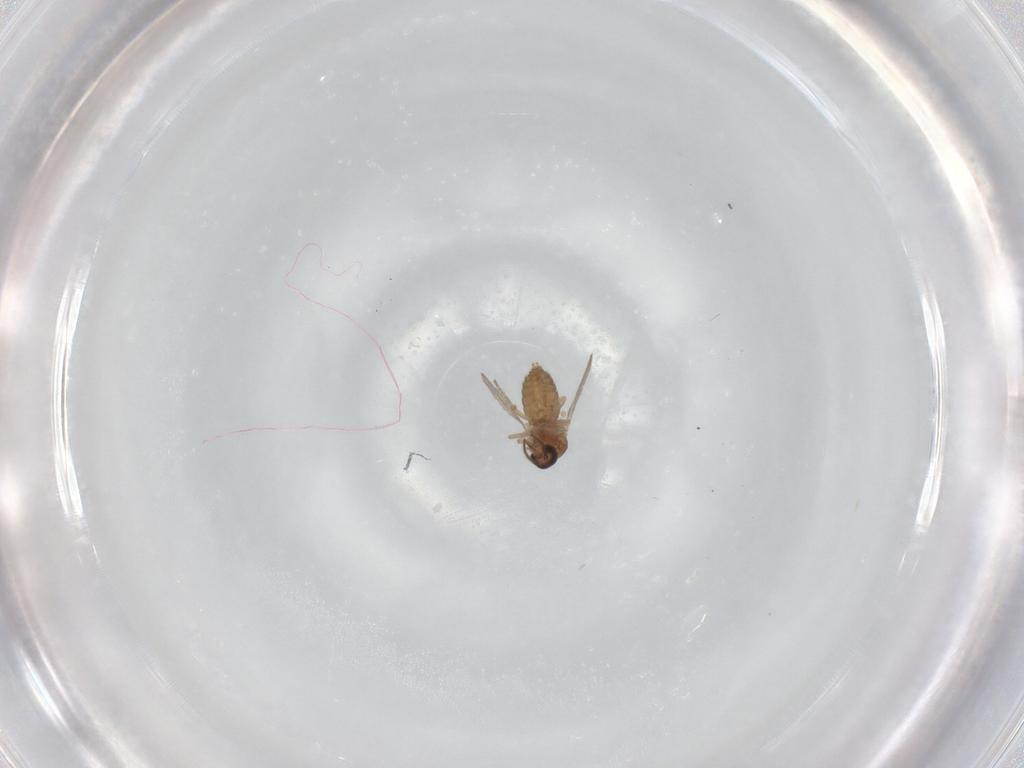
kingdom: Animalia
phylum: Arthropoda
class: Insecta
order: Diptera
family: Ceratopogonidae
